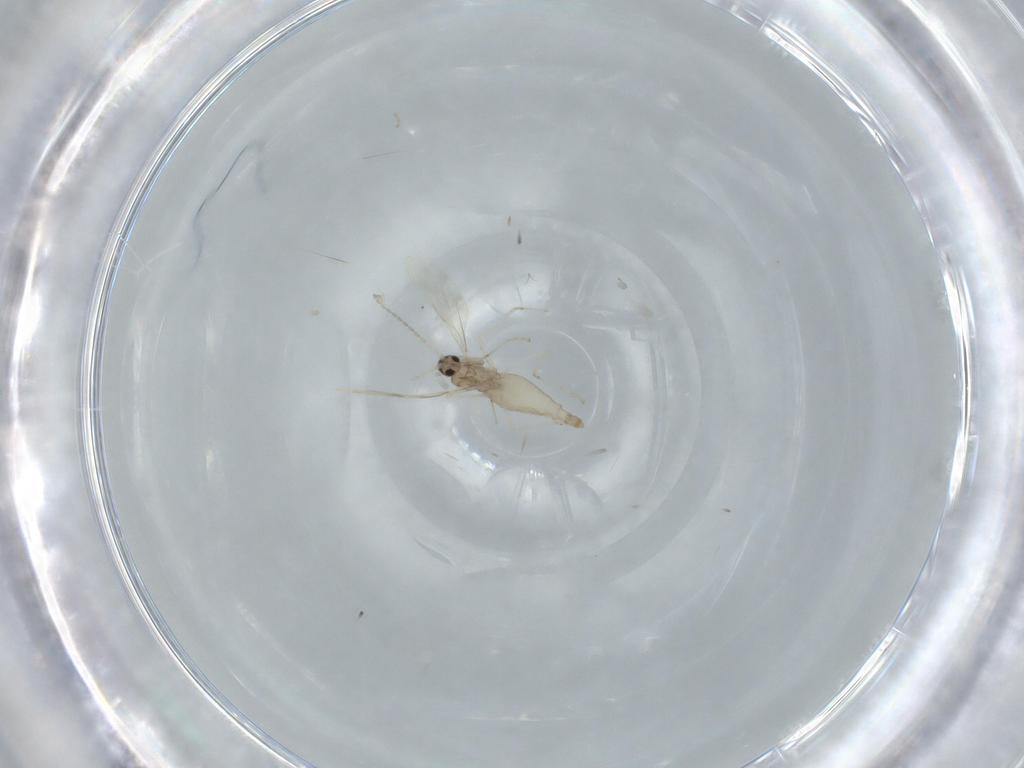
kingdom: Animalia
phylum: Arthropoda
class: Insecta
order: Diptera
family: Cecidomyiidae
